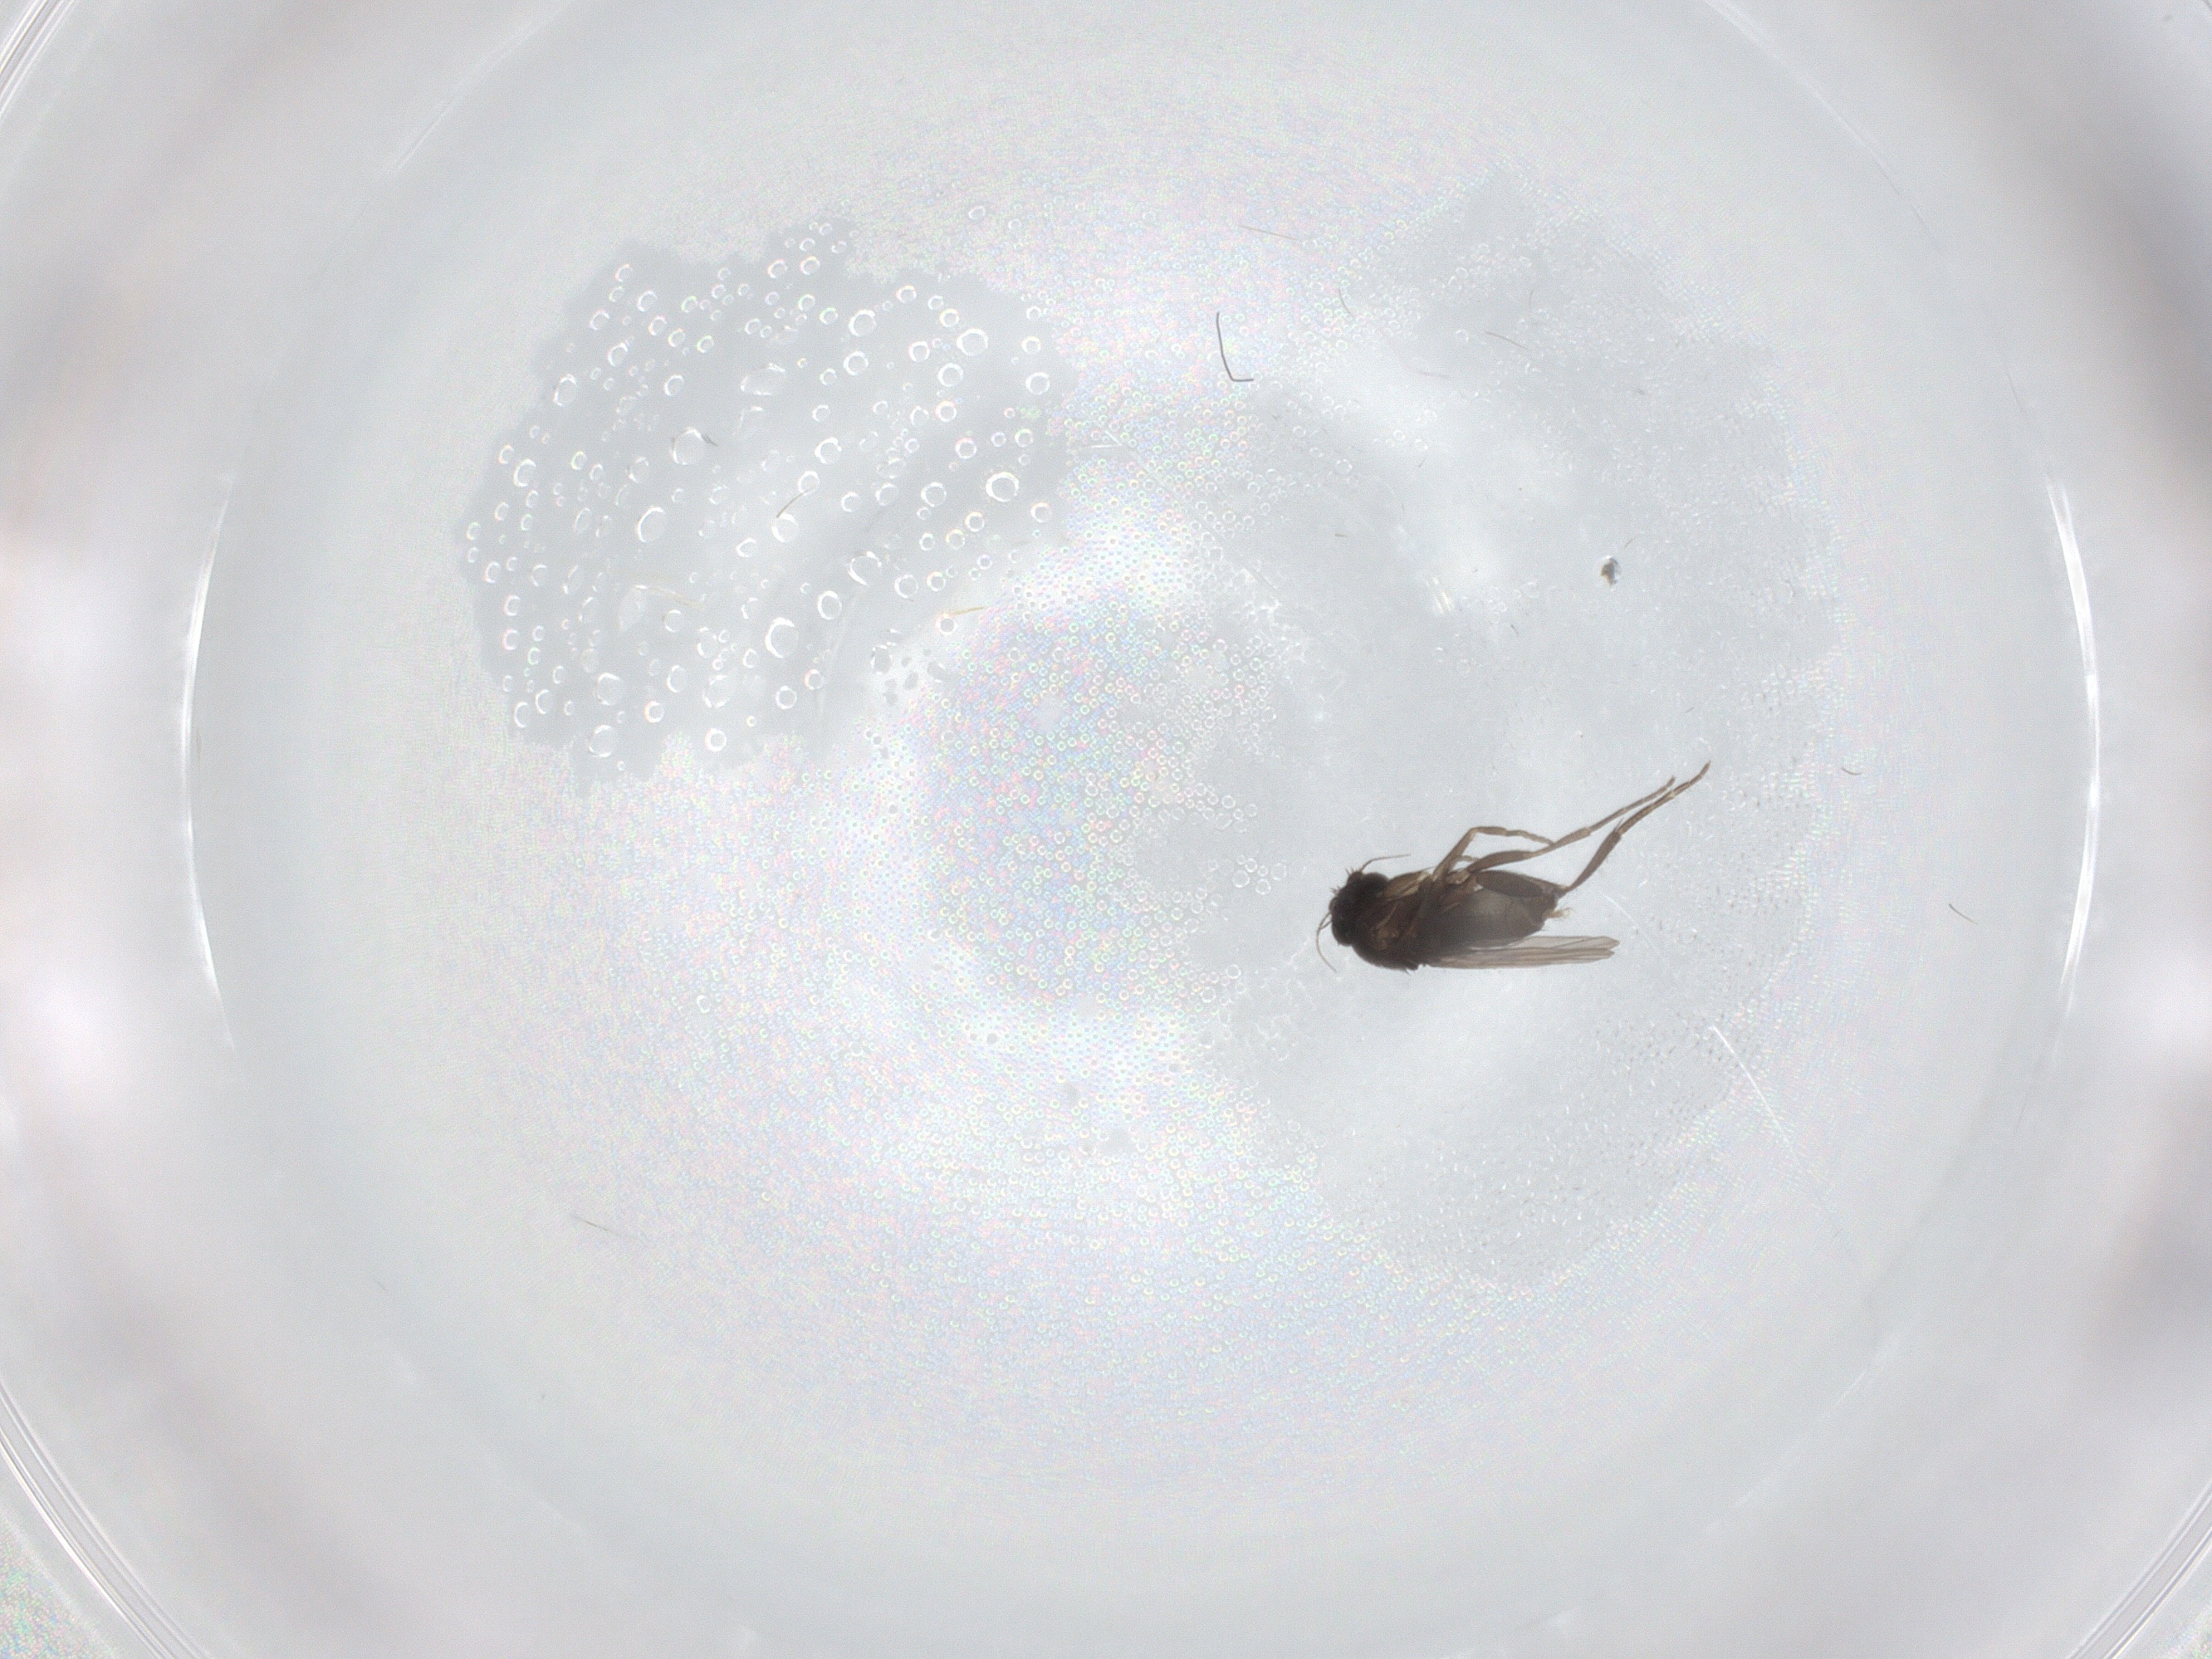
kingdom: Animalia
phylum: Arthropoda
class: Insecta
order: Diptera
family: Phoridae
